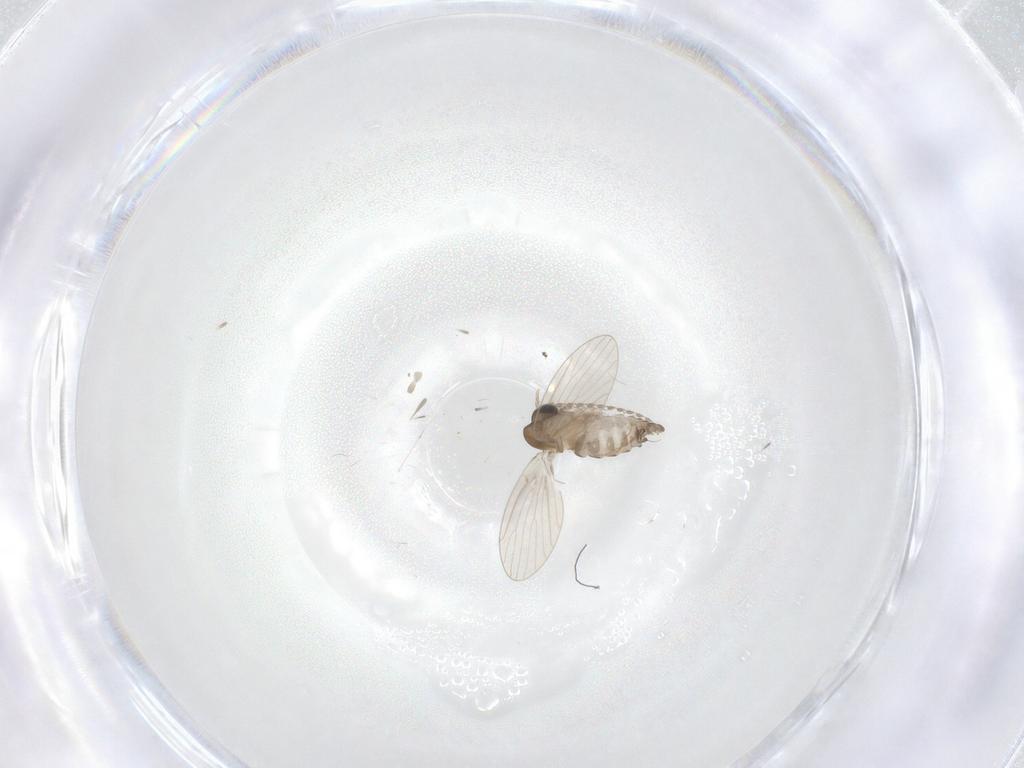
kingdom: Animalia
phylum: Arthropoda
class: Insecta
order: Diptera
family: Psychodidae
